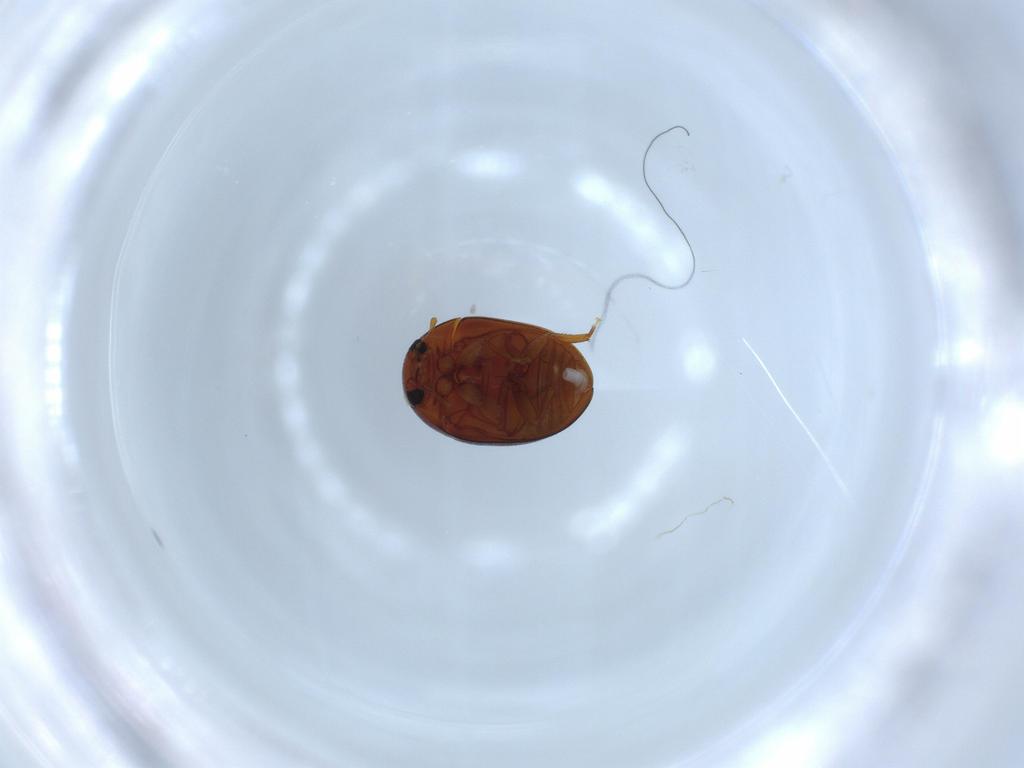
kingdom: Animalia
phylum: Arthropoda
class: Insecta
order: Coleoptera
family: Phalacridae
